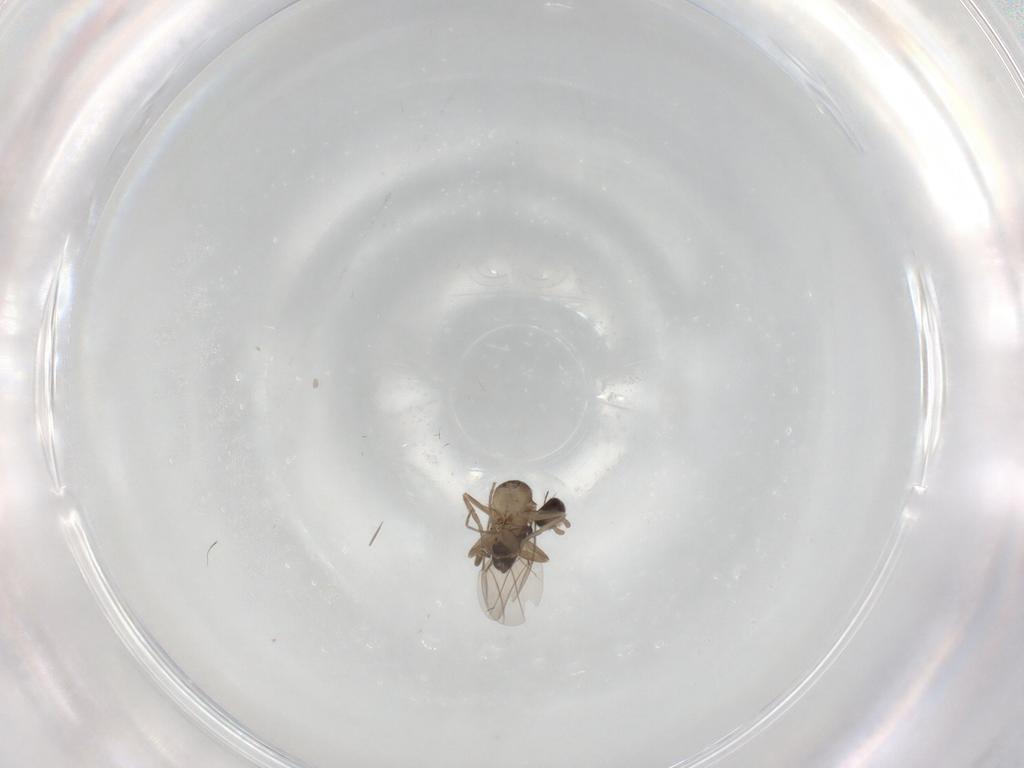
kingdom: Animalia
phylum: Arthropoda
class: Insecta
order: Diptera
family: Phoridae
